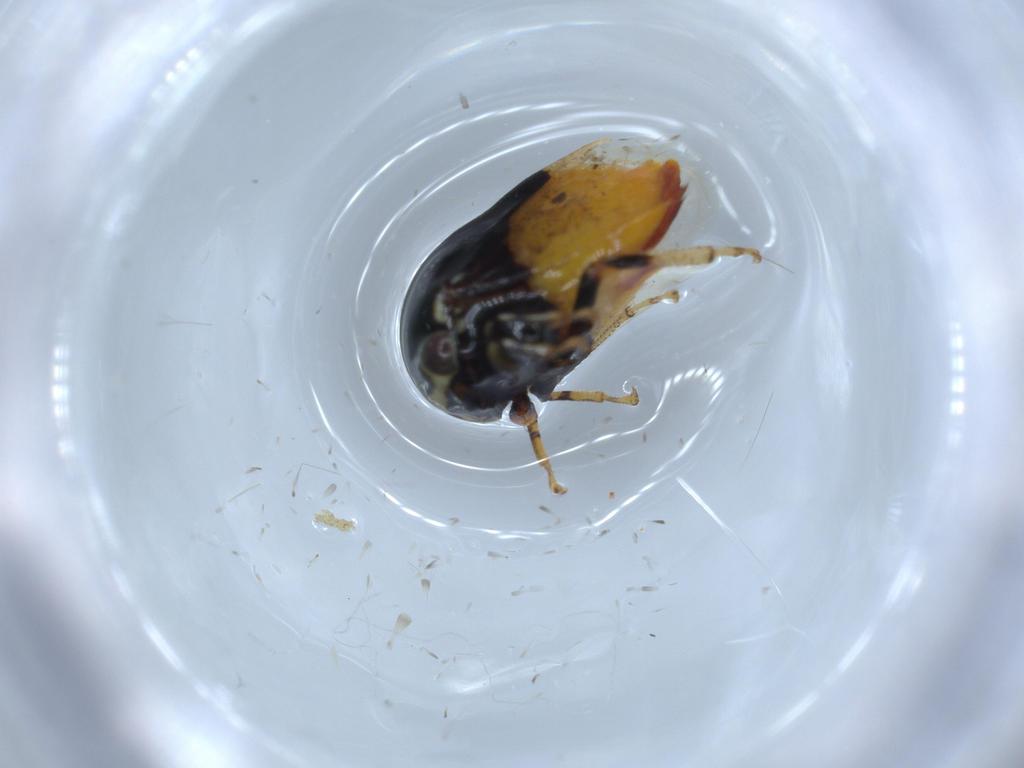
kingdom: Animalia
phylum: Arthropoda
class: Insecta
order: Hemiptera
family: Membracidae
